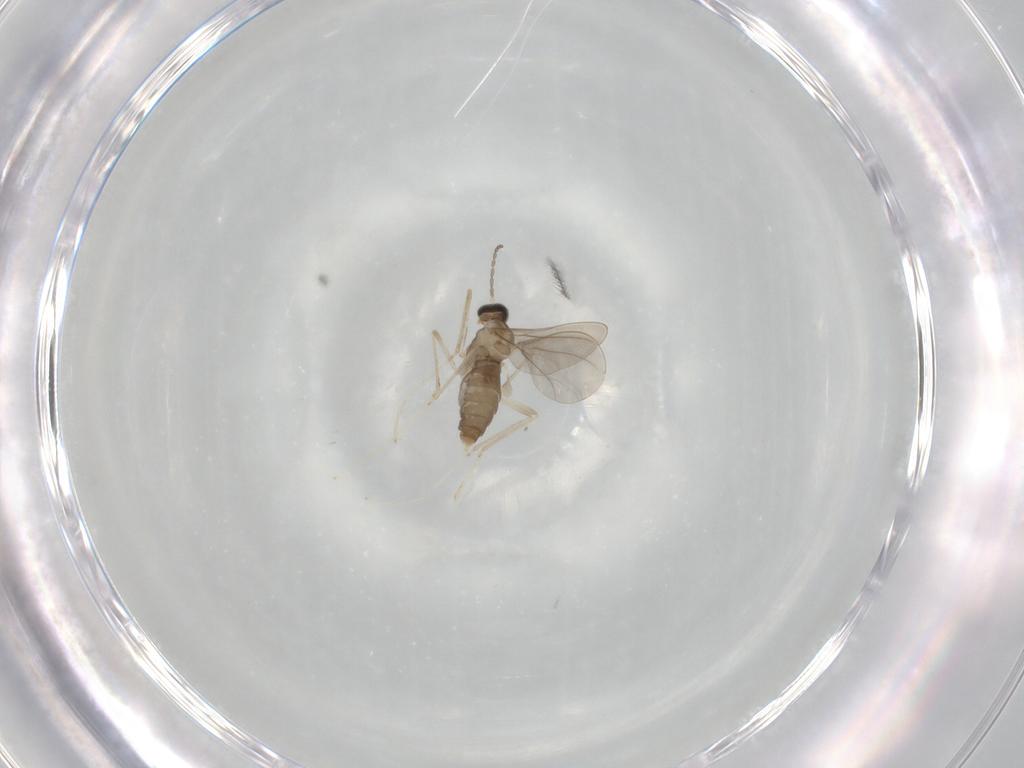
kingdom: Animalia
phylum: Arthropoda
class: Insecta
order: Diptera
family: Cecidomyiidae
